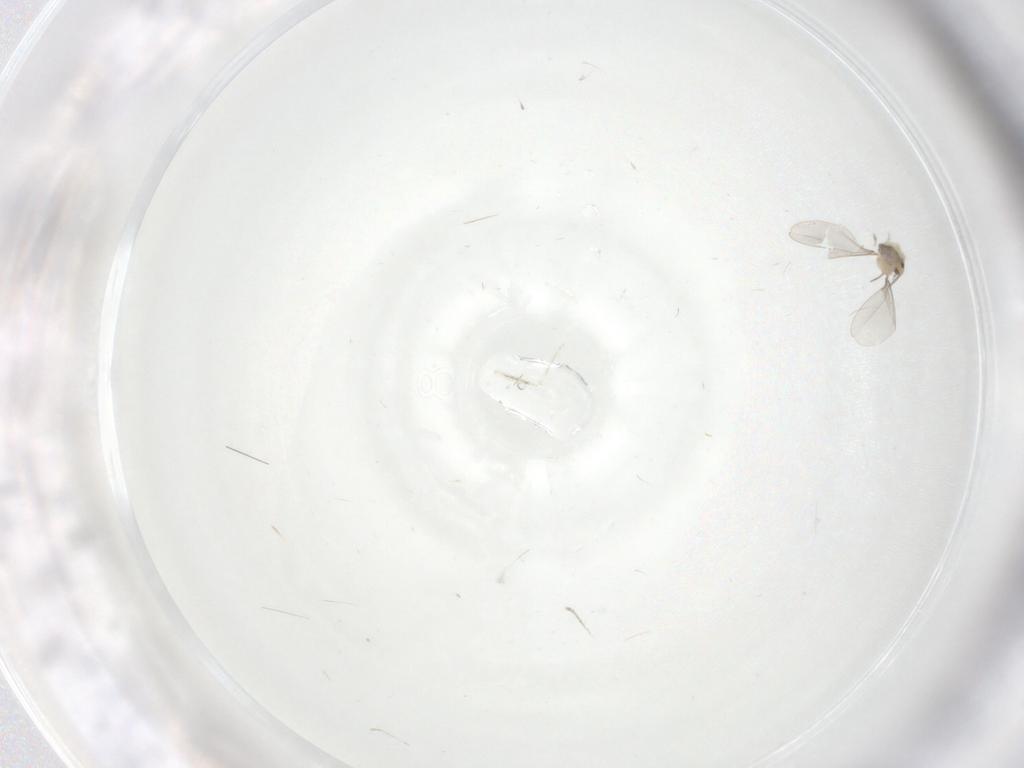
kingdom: Animalia
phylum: Arthropoda
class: Insecta
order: Diptera
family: Cecidomyiidae
